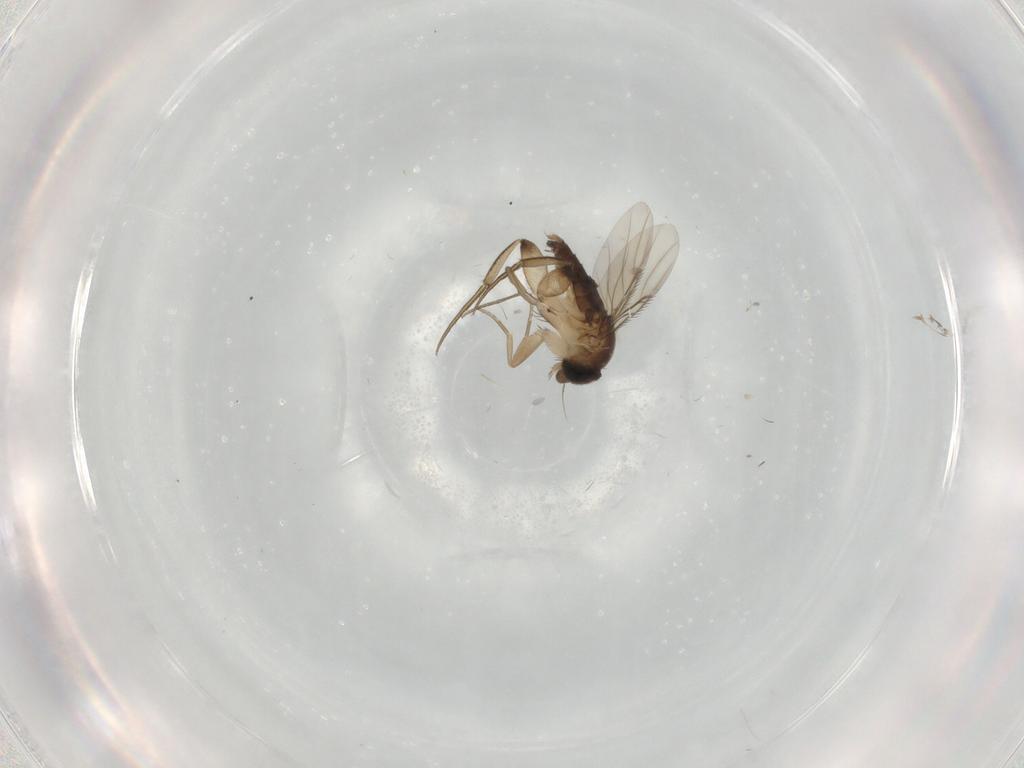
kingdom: Animalia
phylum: Arthropoda
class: Insecta
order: Diptera
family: Phoridae
